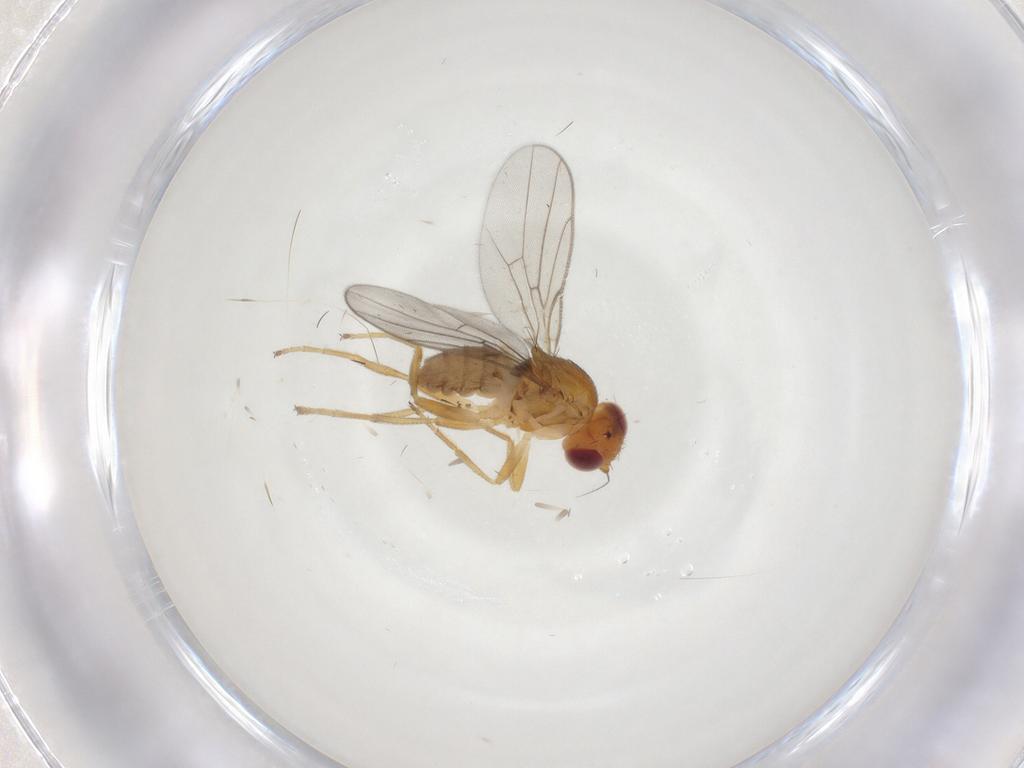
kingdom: Animalia
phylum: Arthropoda
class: Insecta
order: Diptera
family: Chloropidae
